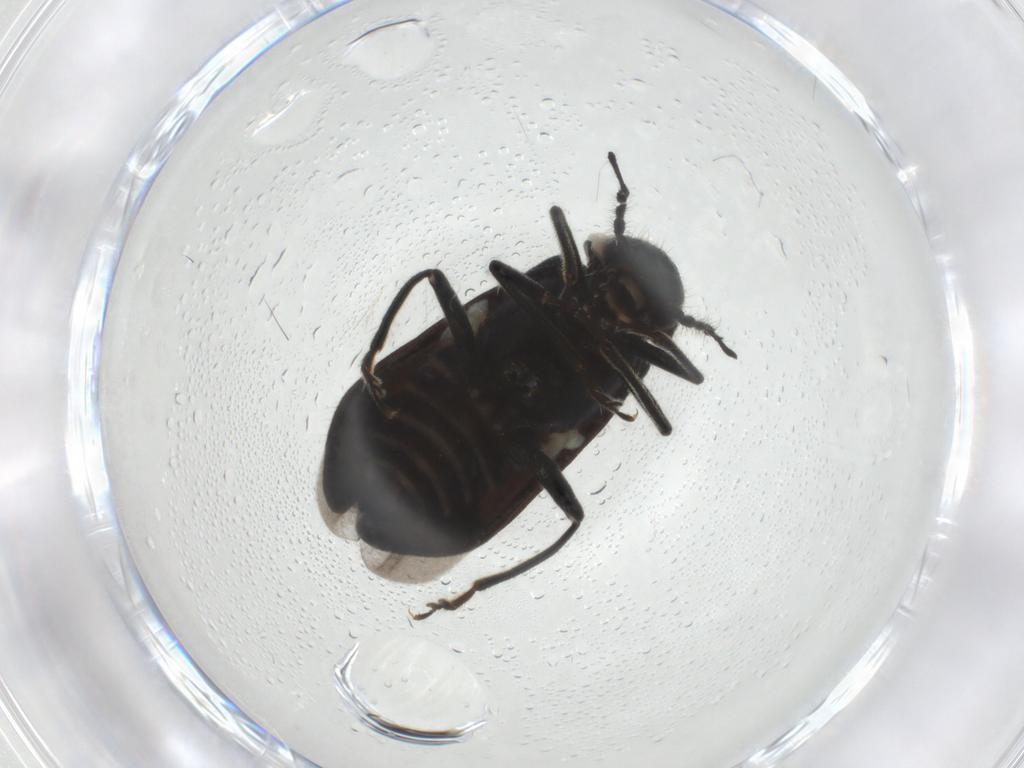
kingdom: Animalia
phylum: Arthropoda
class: Insecta
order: Coleoptera
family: Melyridae
